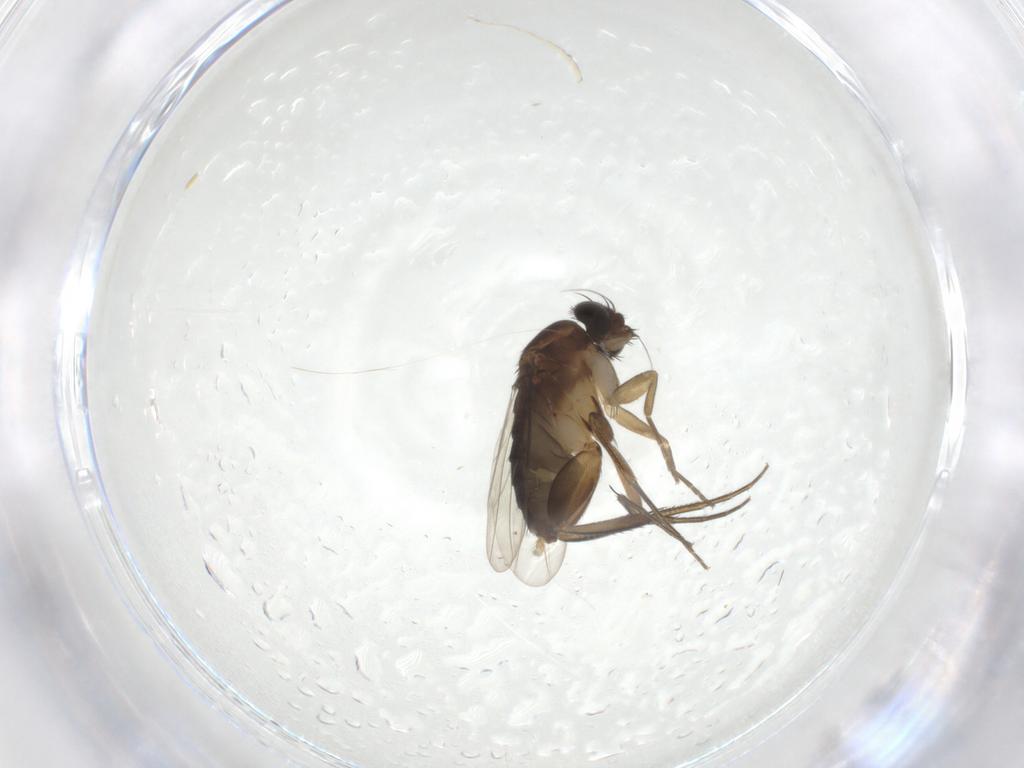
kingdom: Animalia
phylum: Arthropoda
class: Insecta
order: Diptera
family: Phoridae
